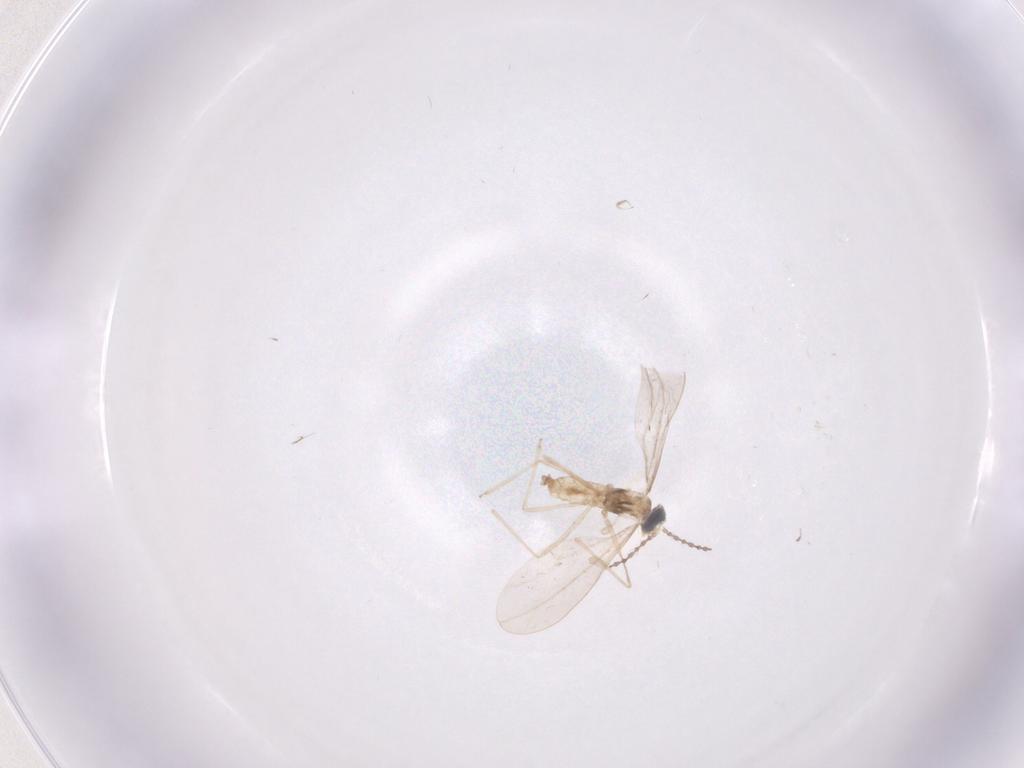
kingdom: Animalia
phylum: Arthropoda
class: Insecta
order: Diptera
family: Cecidomyiidae
